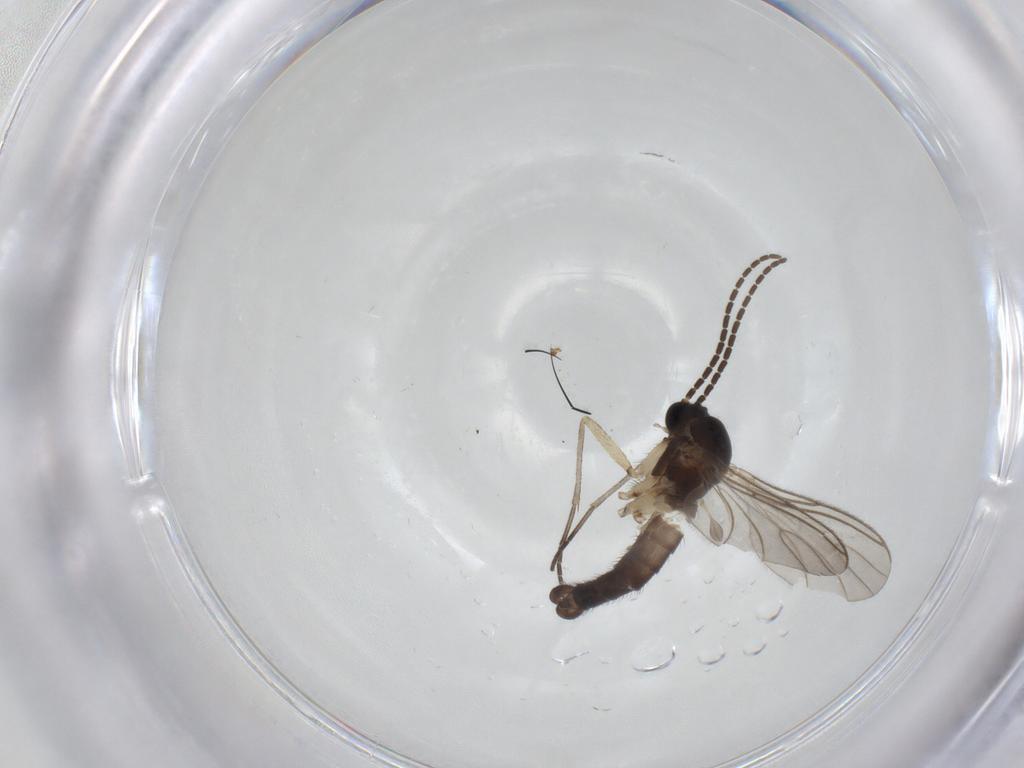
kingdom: Animalia
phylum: Arthropoda
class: Insecta
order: Diptera
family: Sciaridae
